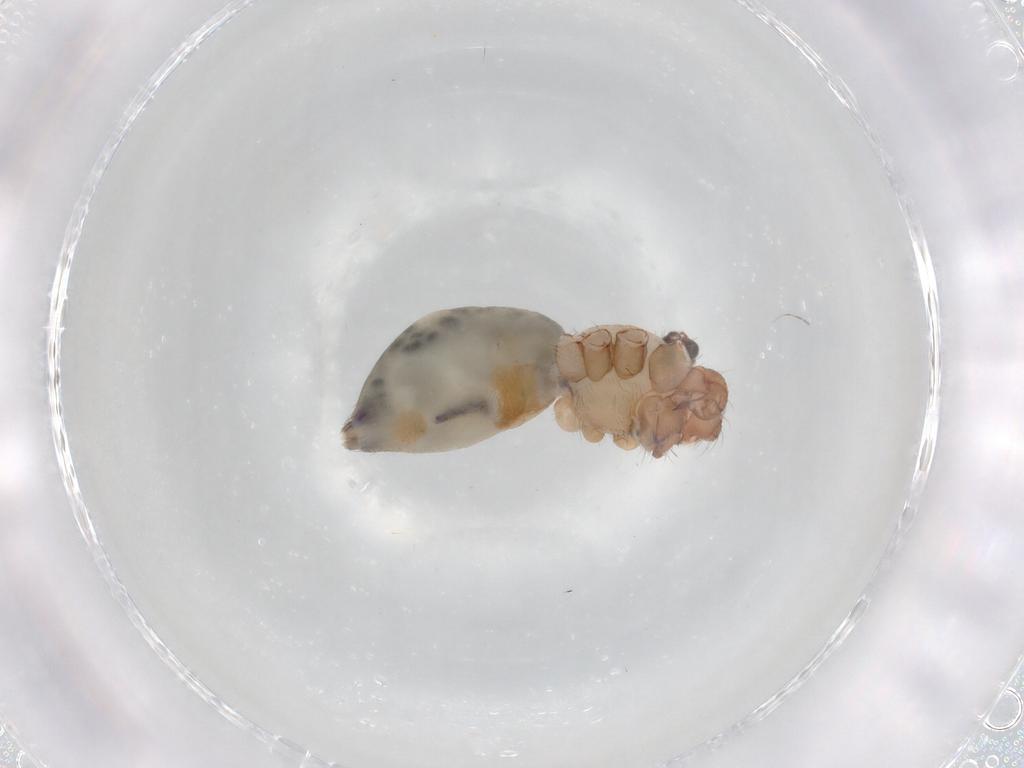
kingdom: Animalia
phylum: Arthropoda
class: Arachnida
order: Araneae
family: Pholcidae
